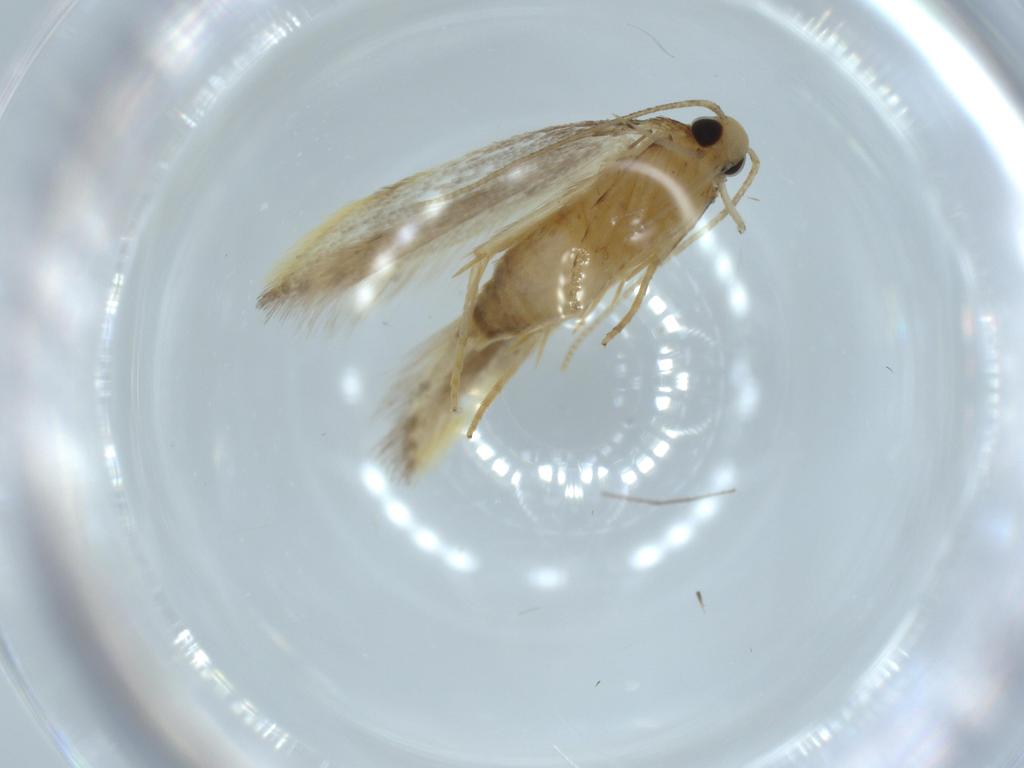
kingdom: Animalia
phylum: Arthropoda
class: Insecta
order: Lepidoptera
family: Autostichidae
